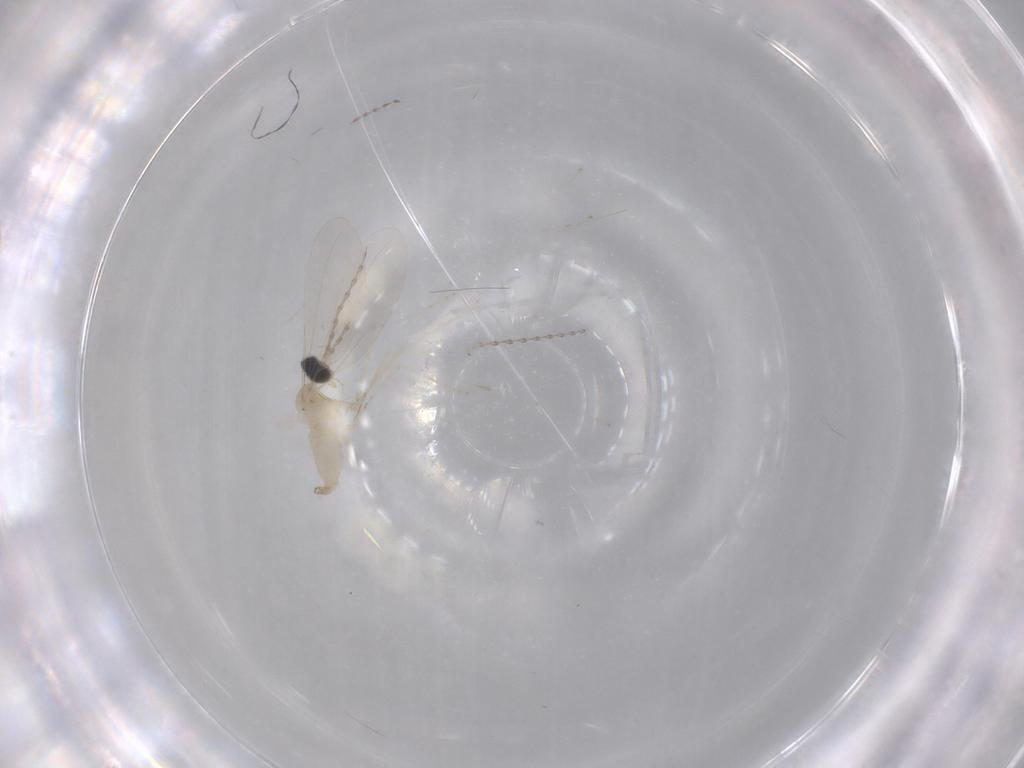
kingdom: Animalia
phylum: Arthropoda
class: Insecta
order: Diptera
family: Cecidomyiidae
